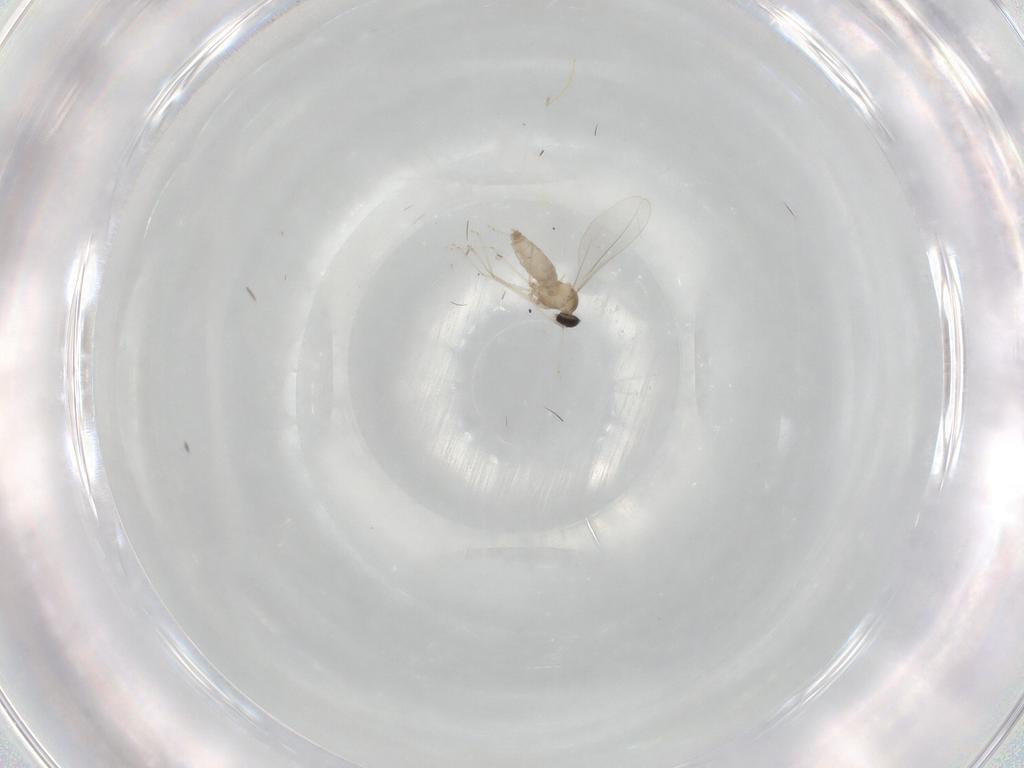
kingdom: Animalia
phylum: Arthropoda
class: Insecta
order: Diptera
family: Cecidomyiidae
